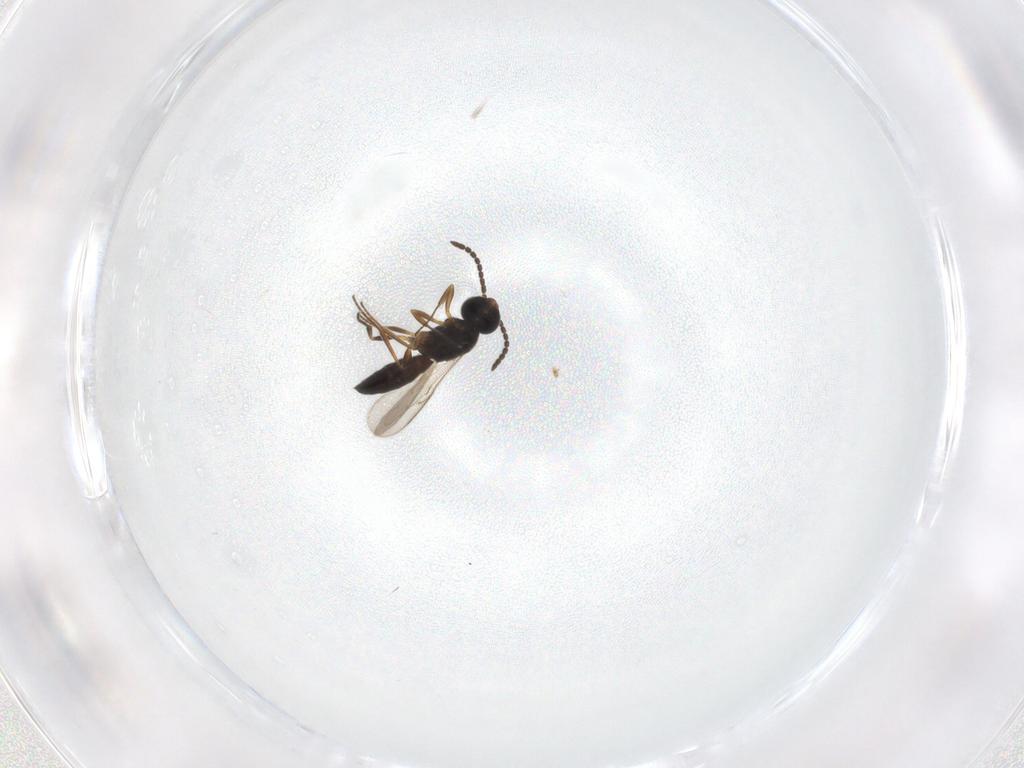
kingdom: Animalia
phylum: Arthropoda
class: Insecta
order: Hymenoptera
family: Scelionidae
